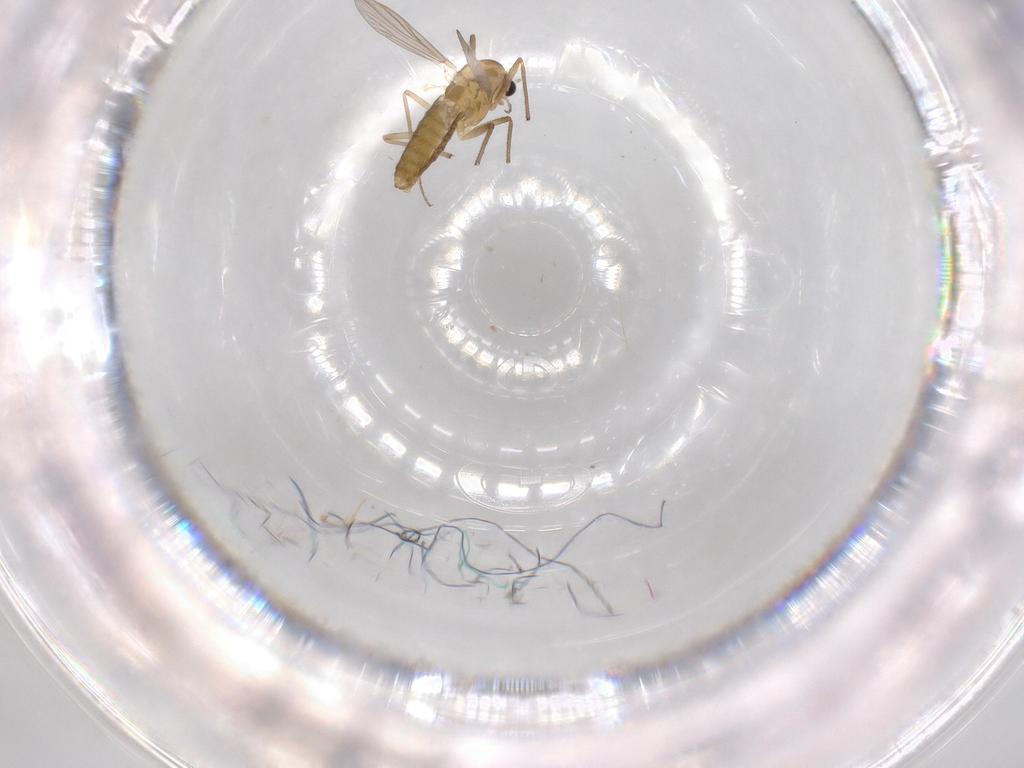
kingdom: Animalia
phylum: Arthropoda
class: Insecta
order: Diptera
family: Chironomidae
